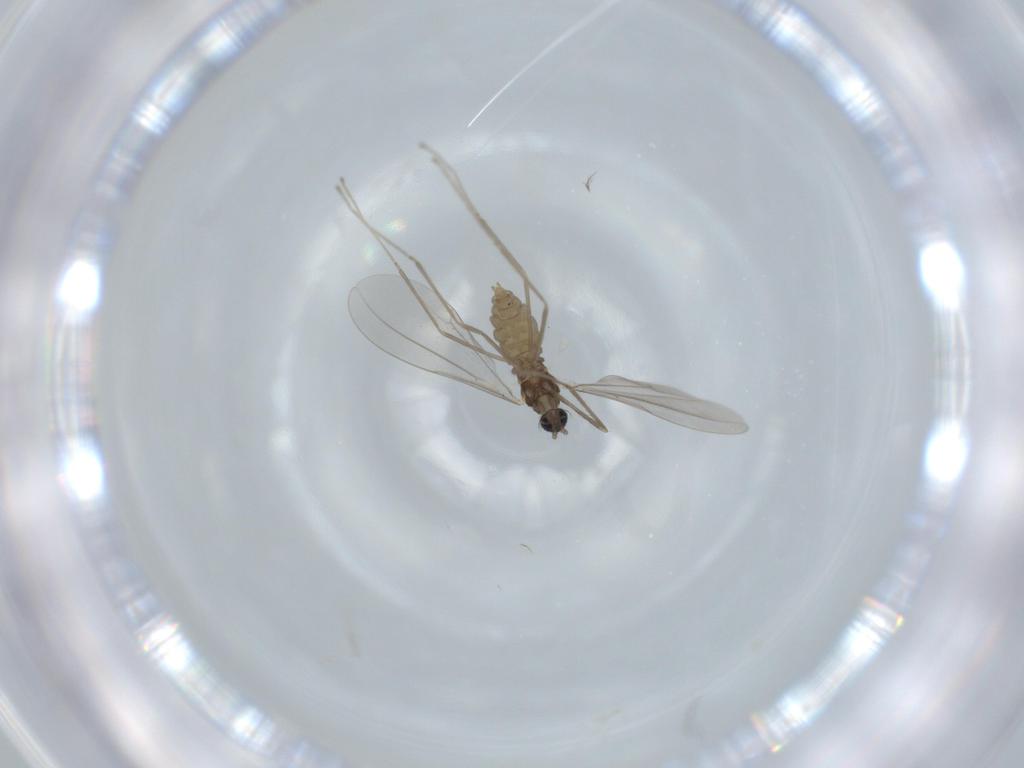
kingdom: Animalia
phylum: Arthropoda
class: Insecta
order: Diptera
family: Cecidomyiidae
